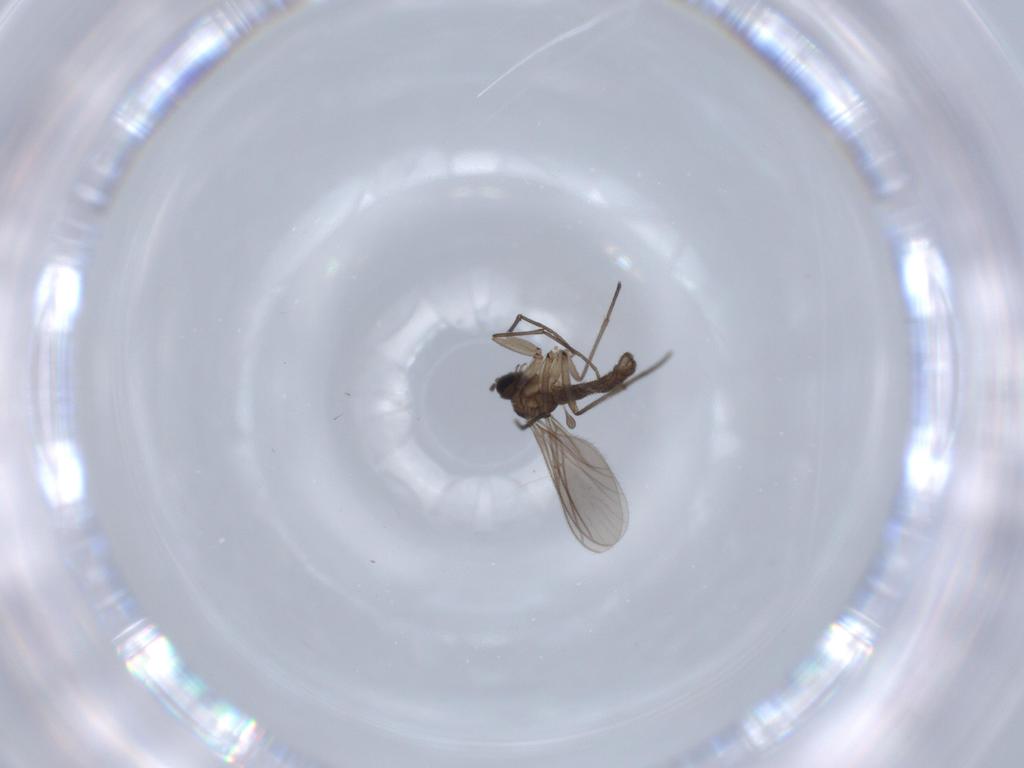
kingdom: Animalia
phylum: Arthropoda
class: Insecta
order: Diptera
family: Sciaridae
